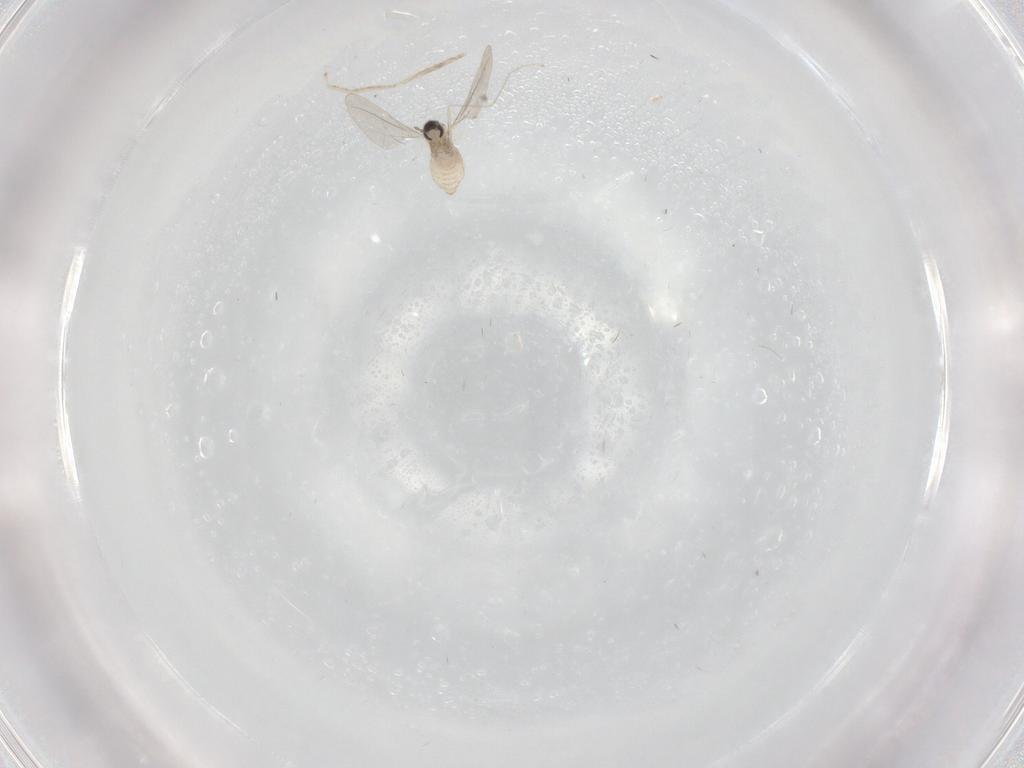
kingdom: Animalia
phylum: Arthropoda
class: Insecta
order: Diptera
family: Cecidomyiidae
